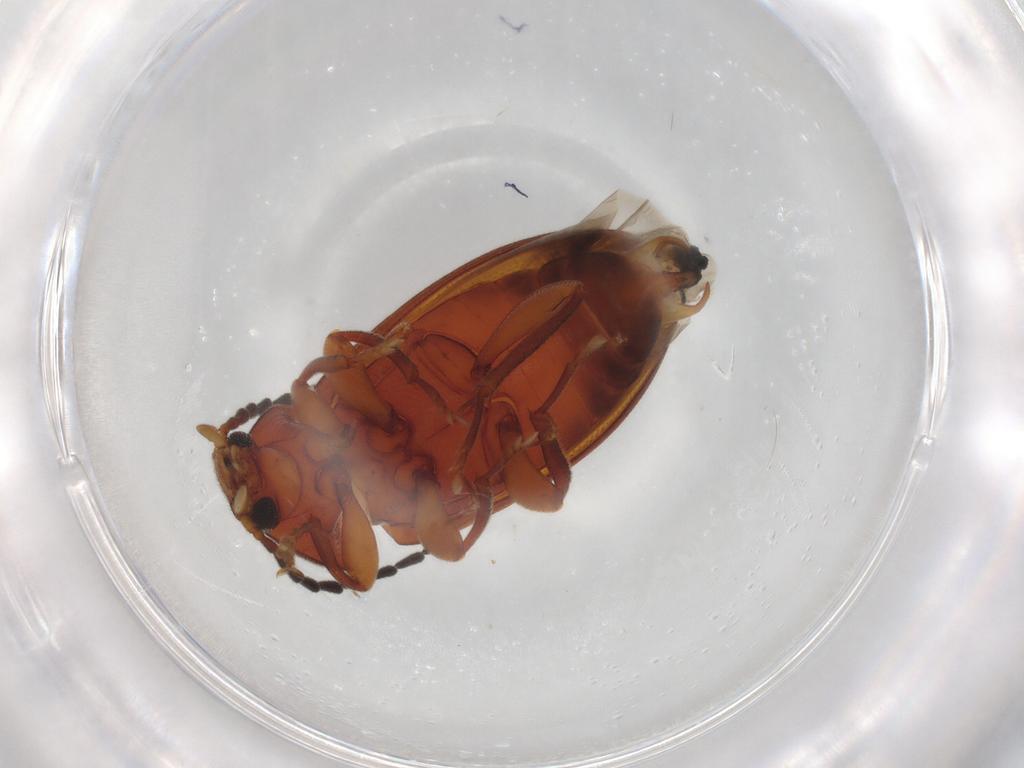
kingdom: Animalia
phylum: Arthropoda
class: Insecta
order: Coleoptera
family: Dytiscidae
